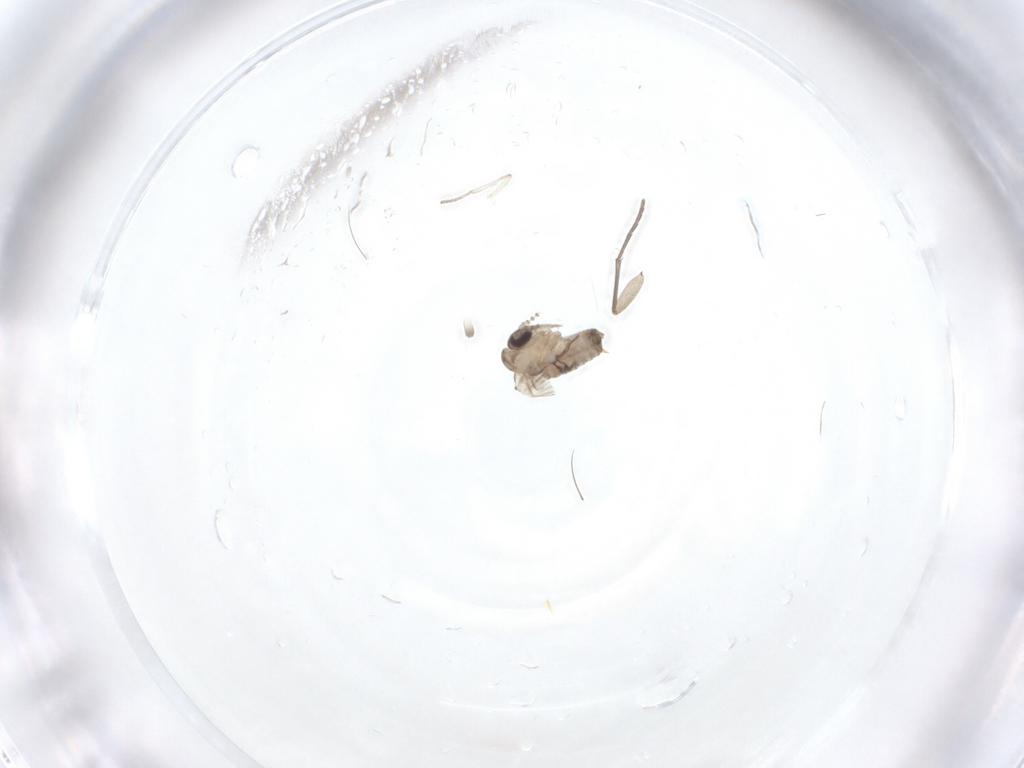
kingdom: Animalia
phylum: Arthropoda
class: Insecta
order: Diptera
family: Psychodidae
